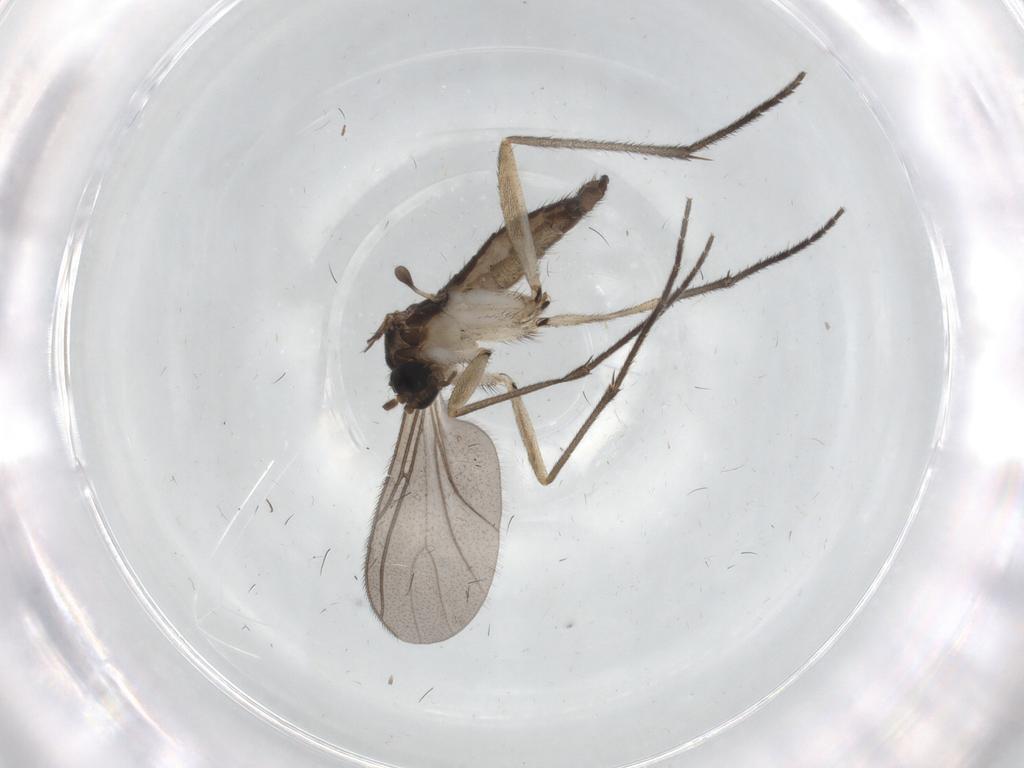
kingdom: Animalia
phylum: Arthropoda
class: Insecta
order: Diptera
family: Sciaridae
